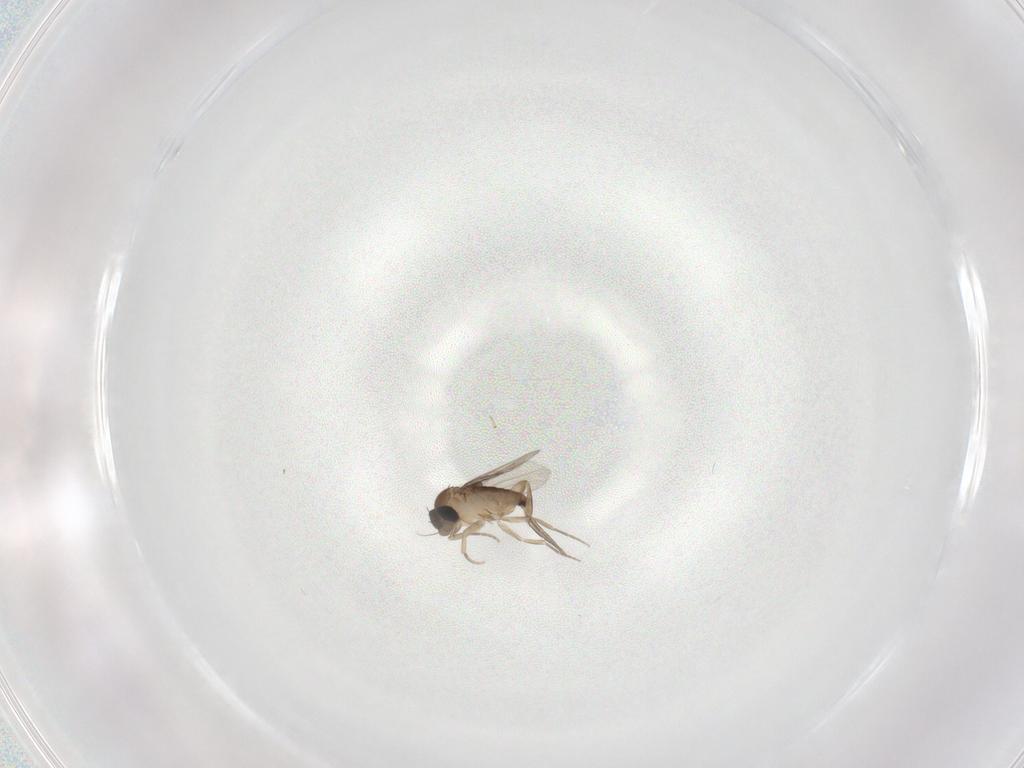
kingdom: Animalia
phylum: Arthropoda
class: Insecta
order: Diptera
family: Phoridae
